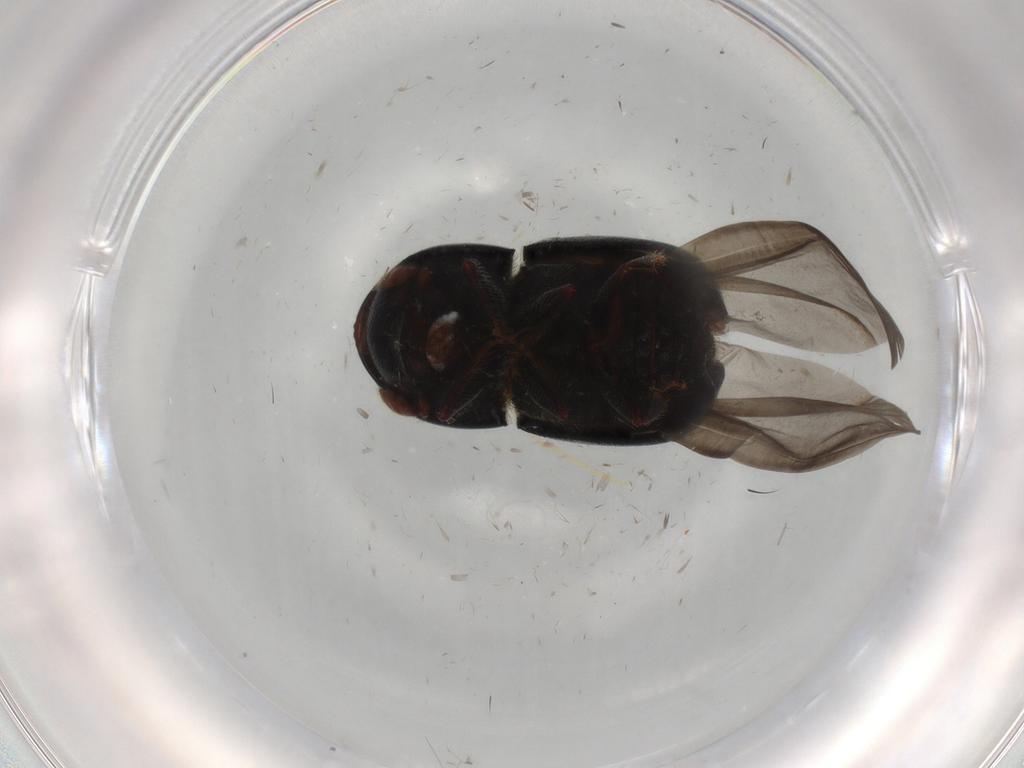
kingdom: Animalia
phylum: Arthropoda
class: Insecta
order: Coleoptera
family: Curculionidae
